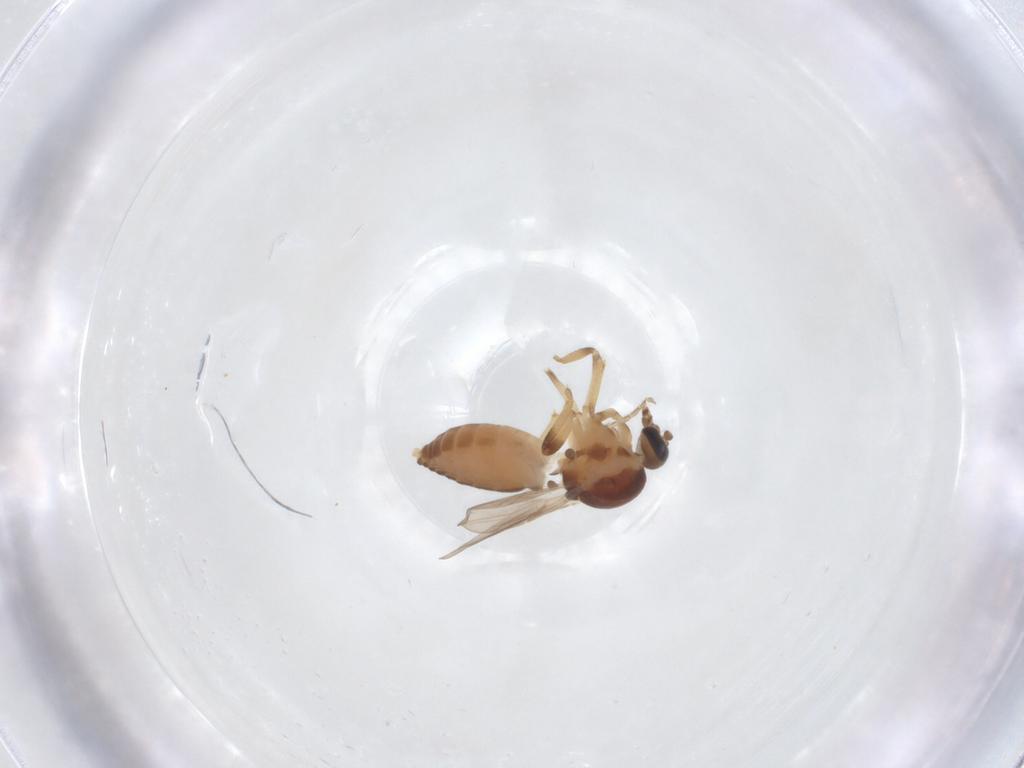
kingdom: Animalia
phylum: Arthropoda
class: Insecta
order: Diptera
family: Ceratopogonidae
